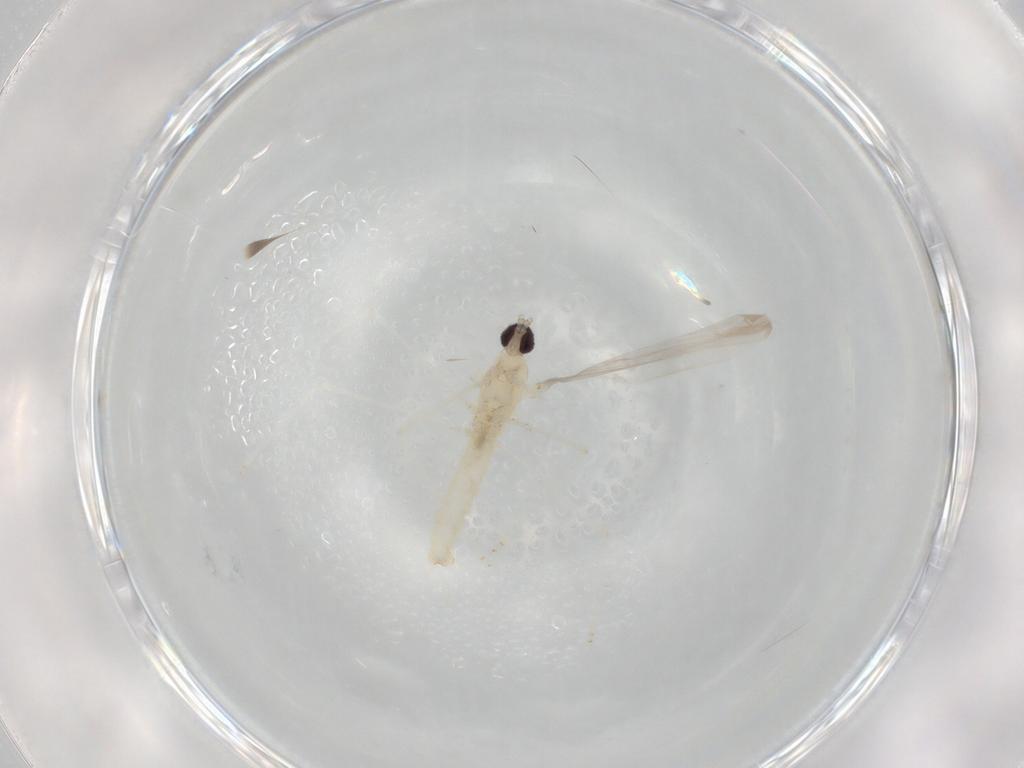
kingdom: Animalia
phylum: Arthropoda
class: Insecta
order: Diptera
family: Cecidomyiidae
